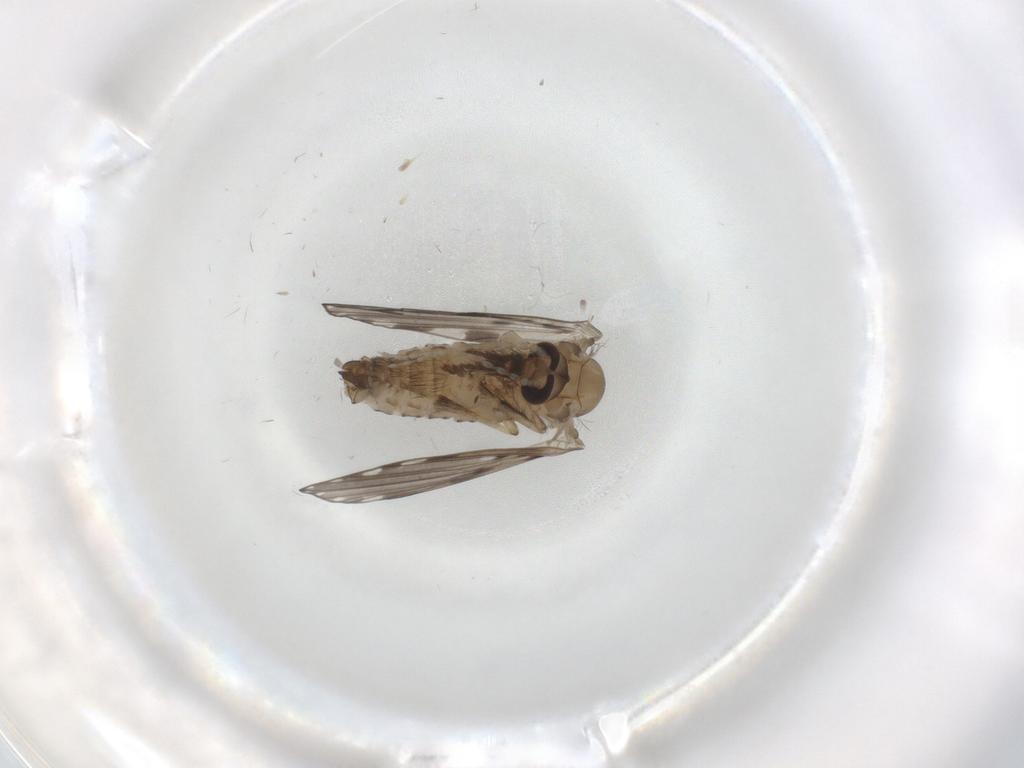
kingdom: Animalia
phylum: Arthropoda
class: Insecta
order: Diptera
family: Psychodidae
